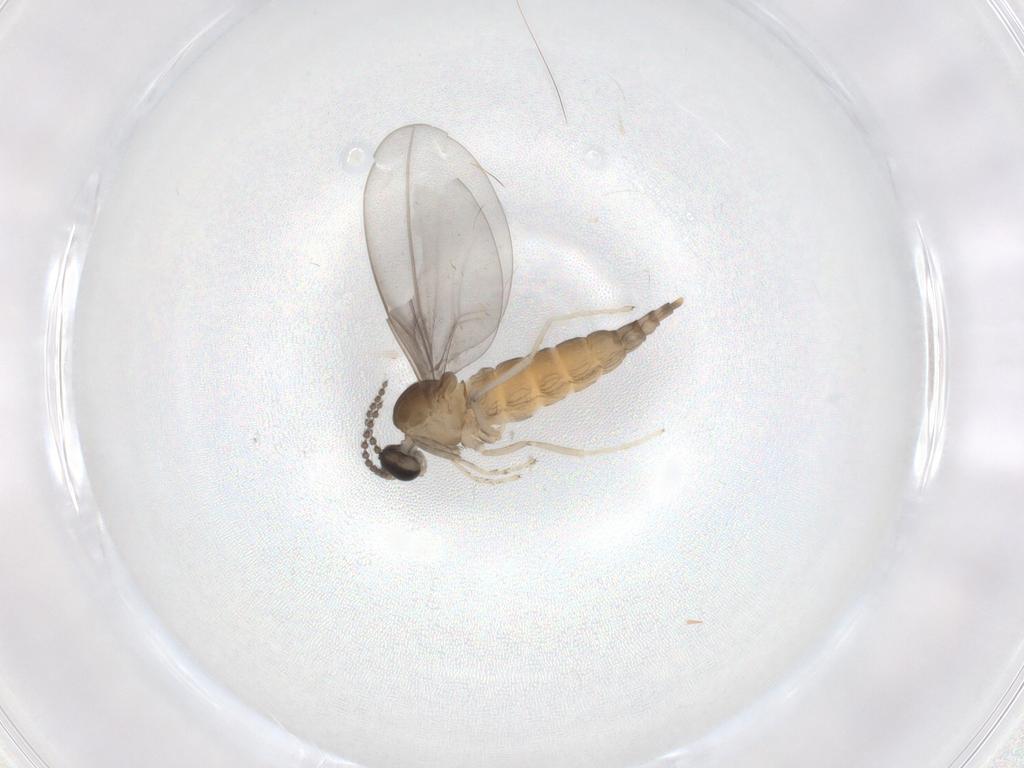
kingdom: Animalia
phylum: Arthropoda
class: Insecta
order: Diptera
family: Cecidomyiidae
